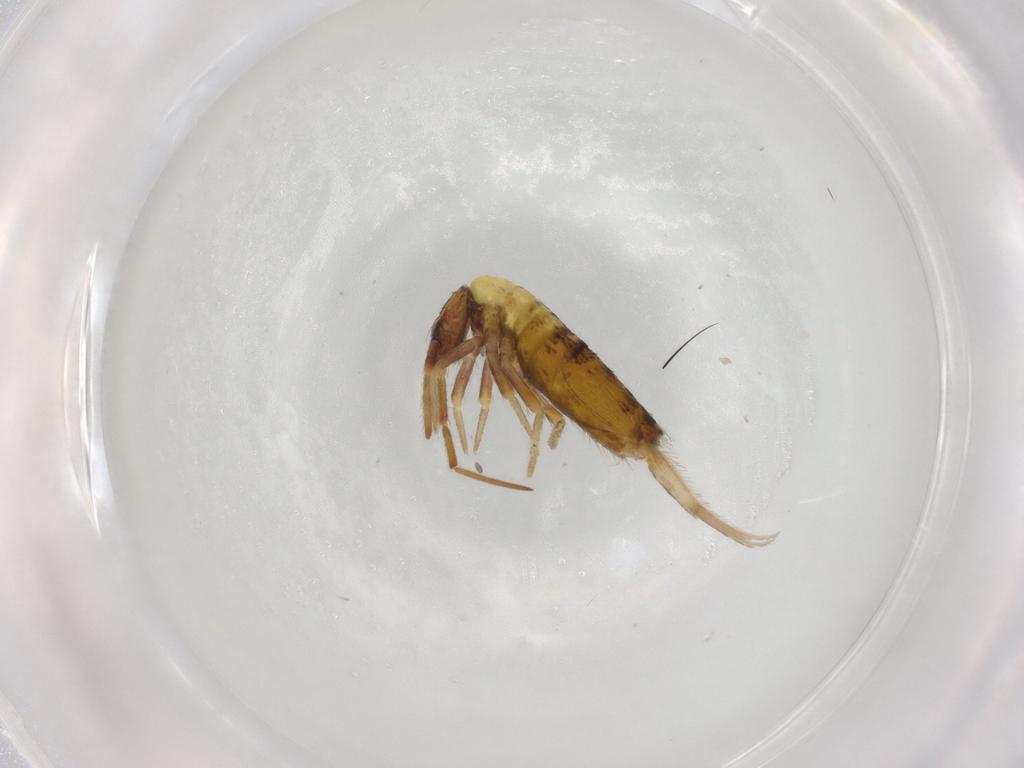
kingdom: Animalia
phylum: Arthropoda
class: Collembola
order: Entomobryomorpha
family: Entomobryidae
